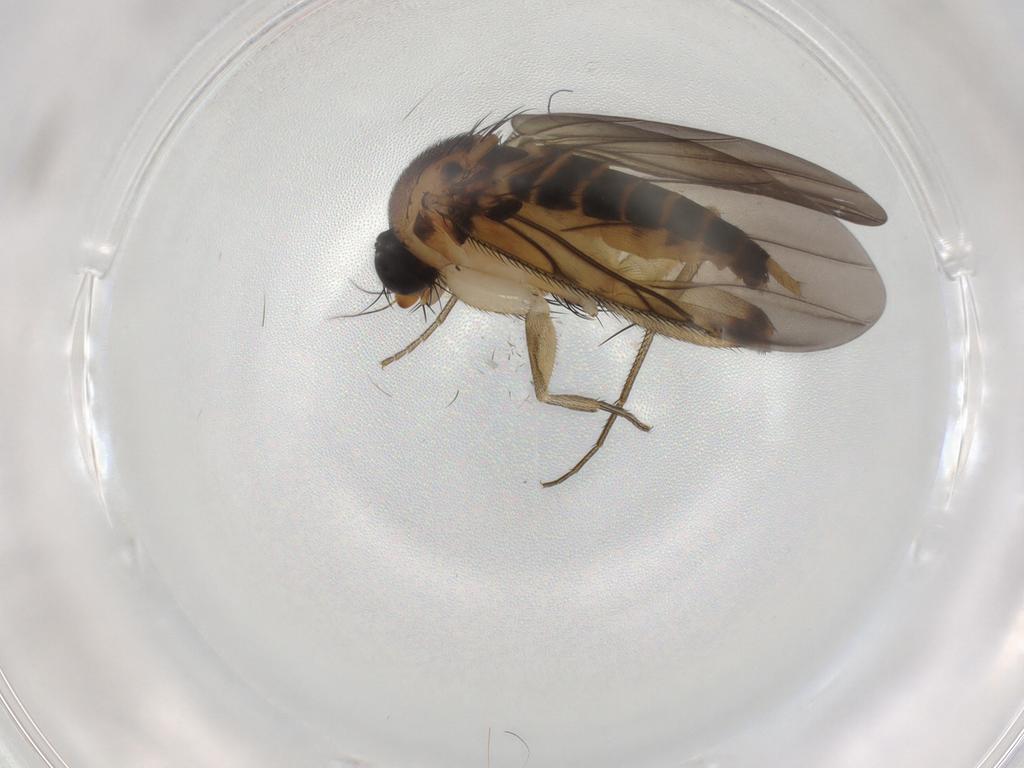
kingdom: Animalia
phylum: Arthropoda
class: Insecta
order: Diptera
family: Phoridae
